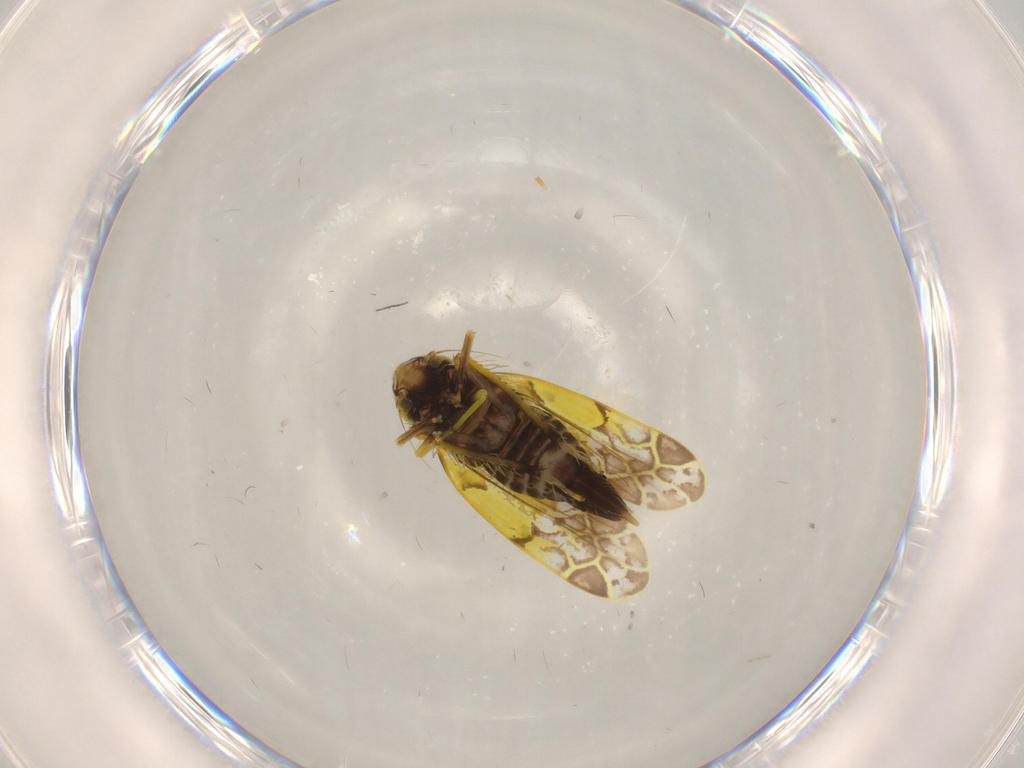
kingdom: Animalia
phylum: Arthropoda
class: Insecta
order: Hemiptera
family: Cicadellidae
